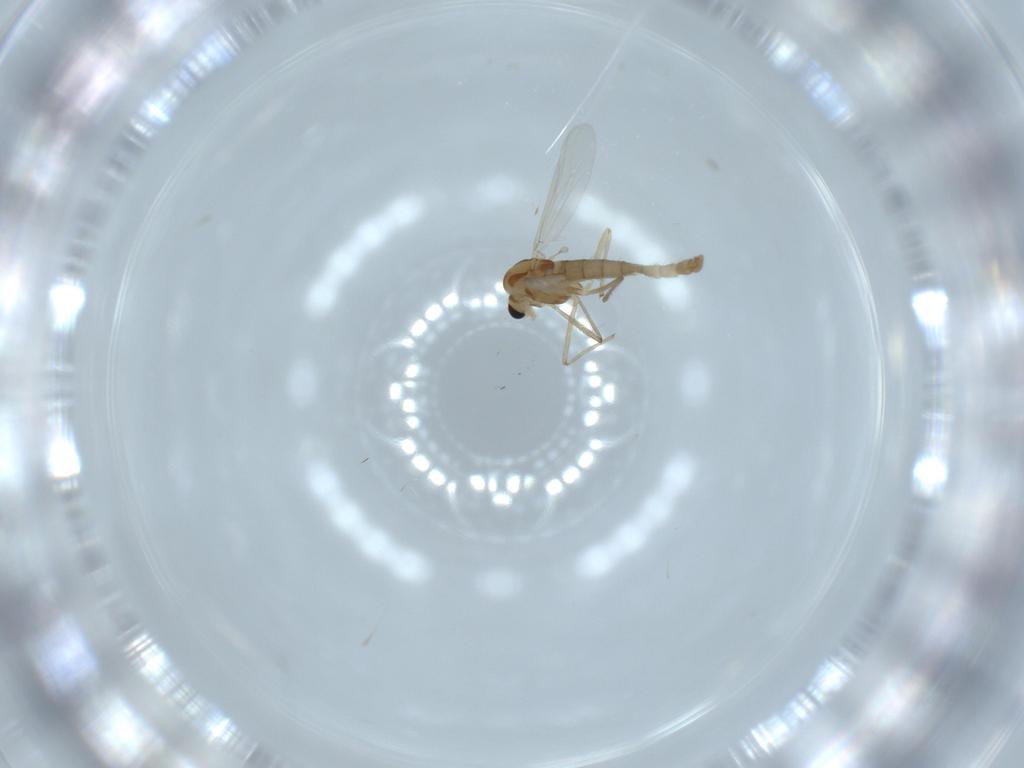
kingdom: Animalia
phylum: Arthropoda
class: Insecta
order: Diptera
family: Chironomidae
